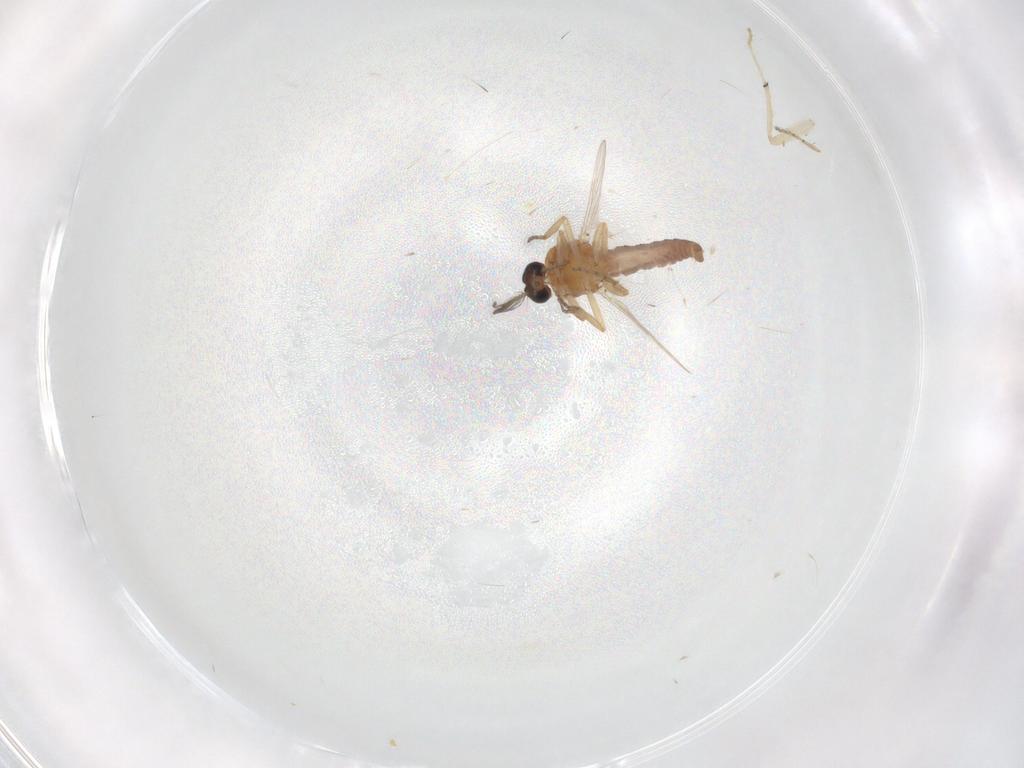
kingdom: Animalia
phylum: Arthropoda
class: Insecta
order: Diptera
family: Ceratopogonidae
